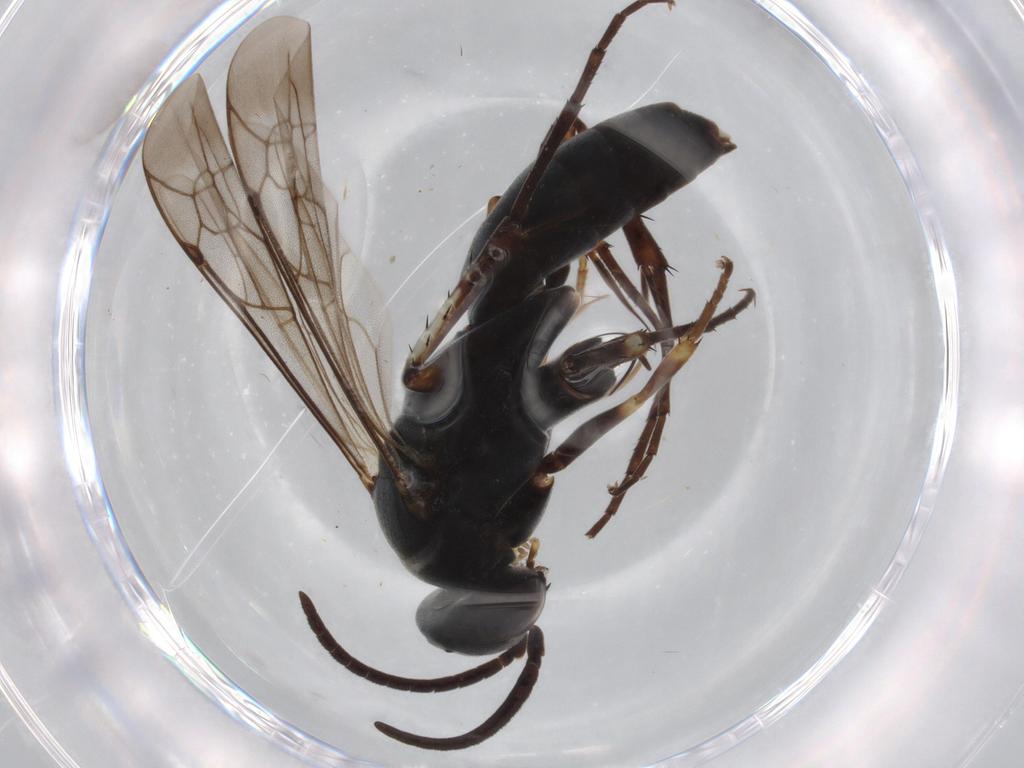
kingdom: Animalia
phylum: Arthropoda
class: Insecta
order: Hymenoptera
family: Pompilidae
